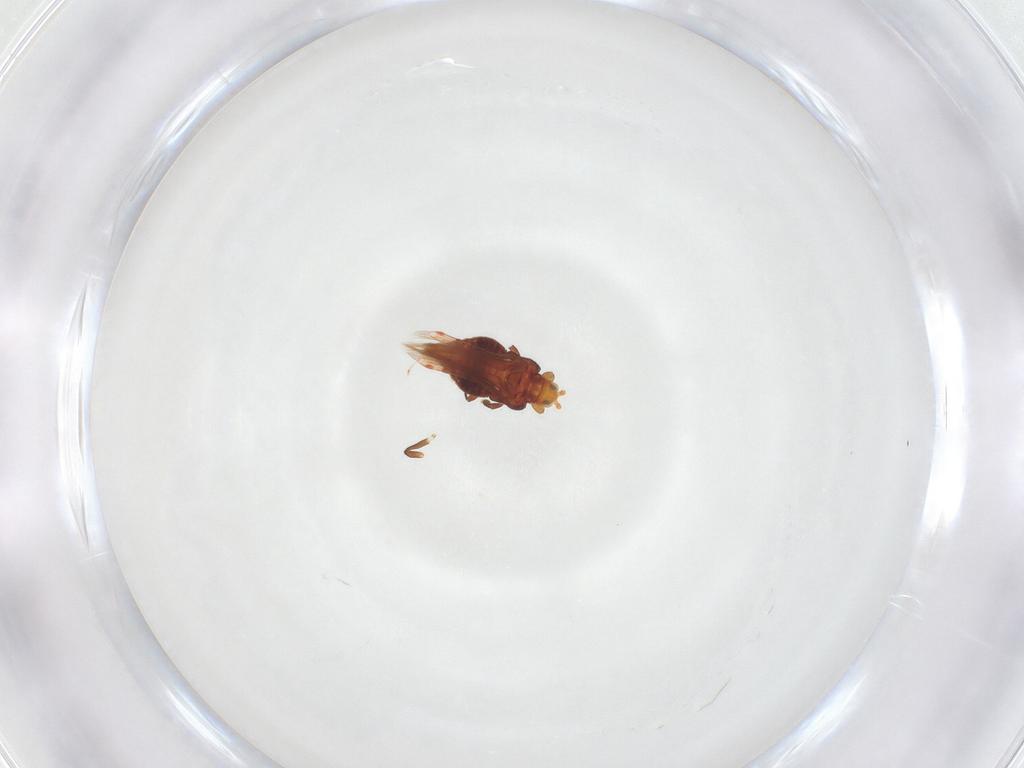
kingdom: Animalia
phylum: Arthropoda
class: Insecta
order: Thysanoptera
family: Thripidae
